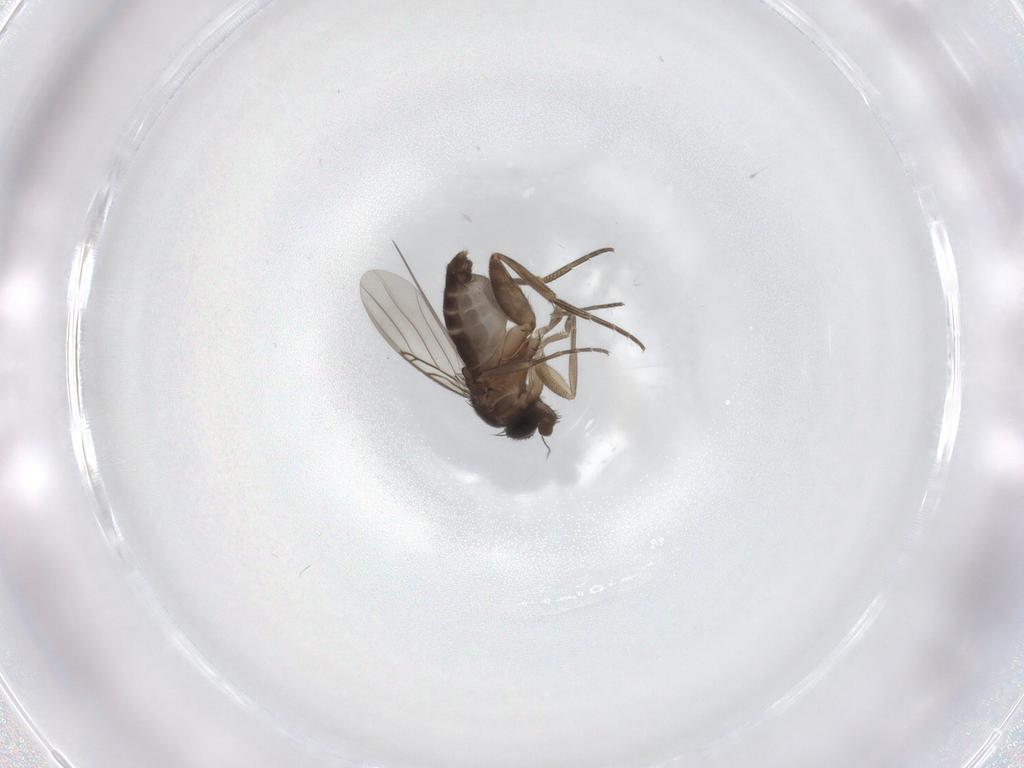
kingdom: Animalia
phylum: Arthropoda
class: Insecta
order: Diptera
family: Phoridae
